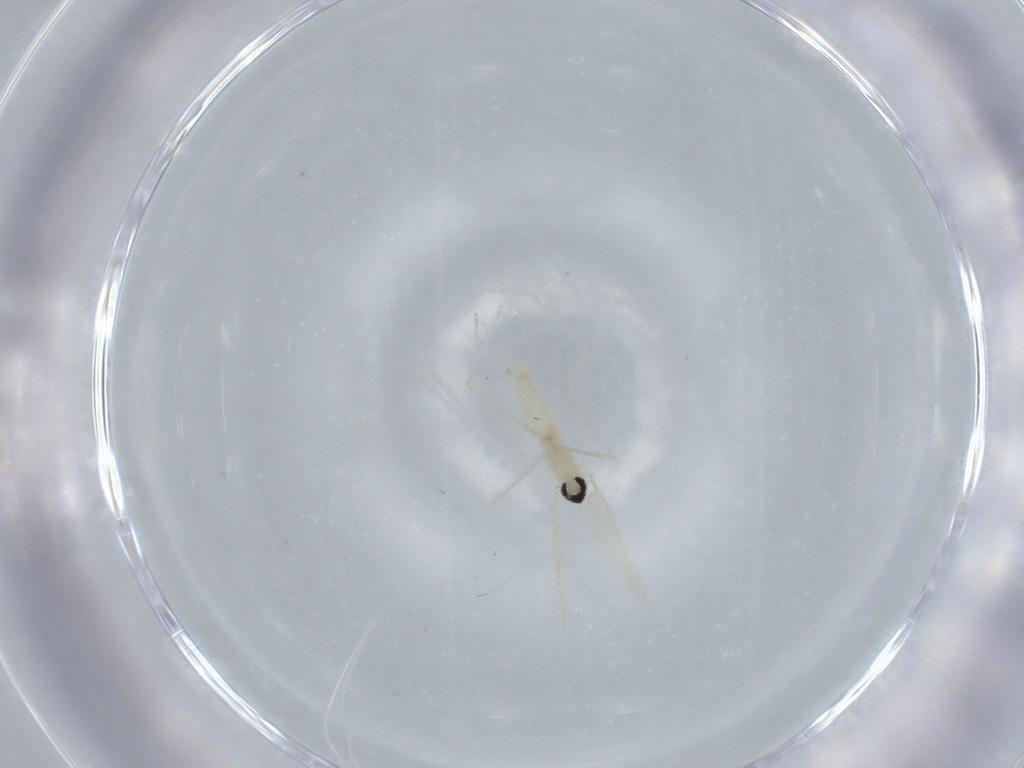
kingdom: Animalia
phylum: Arthropoda
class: Insecta
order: Diptera
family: Cecidomyiidae
